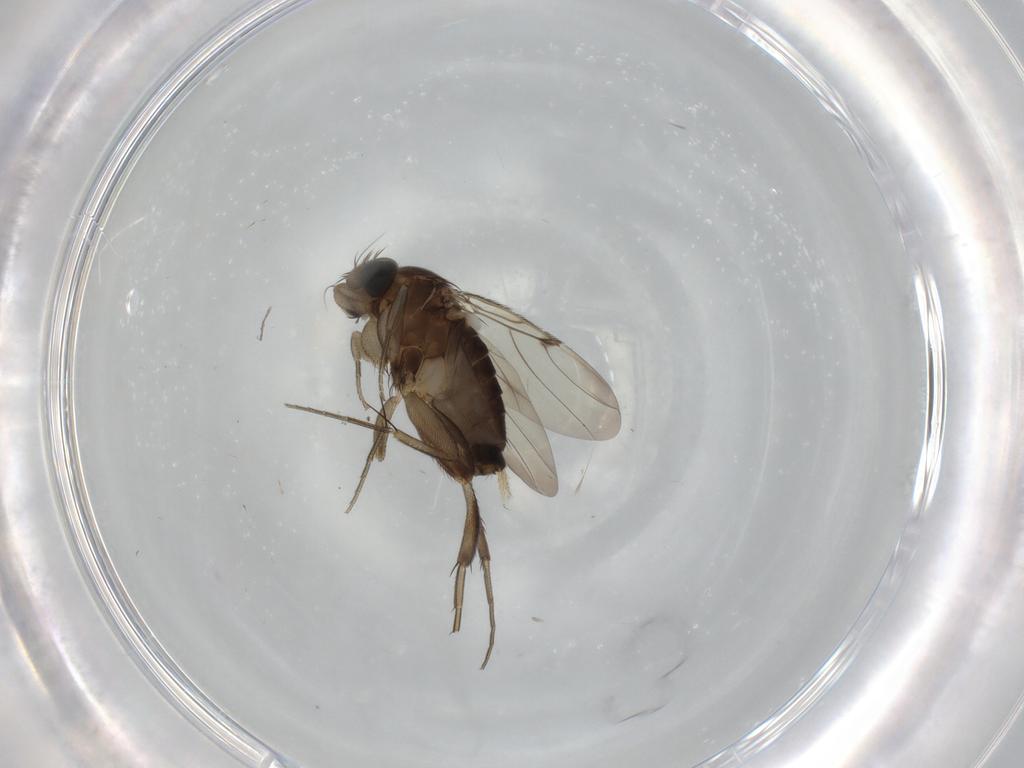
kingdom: Animalia
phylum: Arthropoda
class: Insecta
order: Diptera
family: Phoridae
